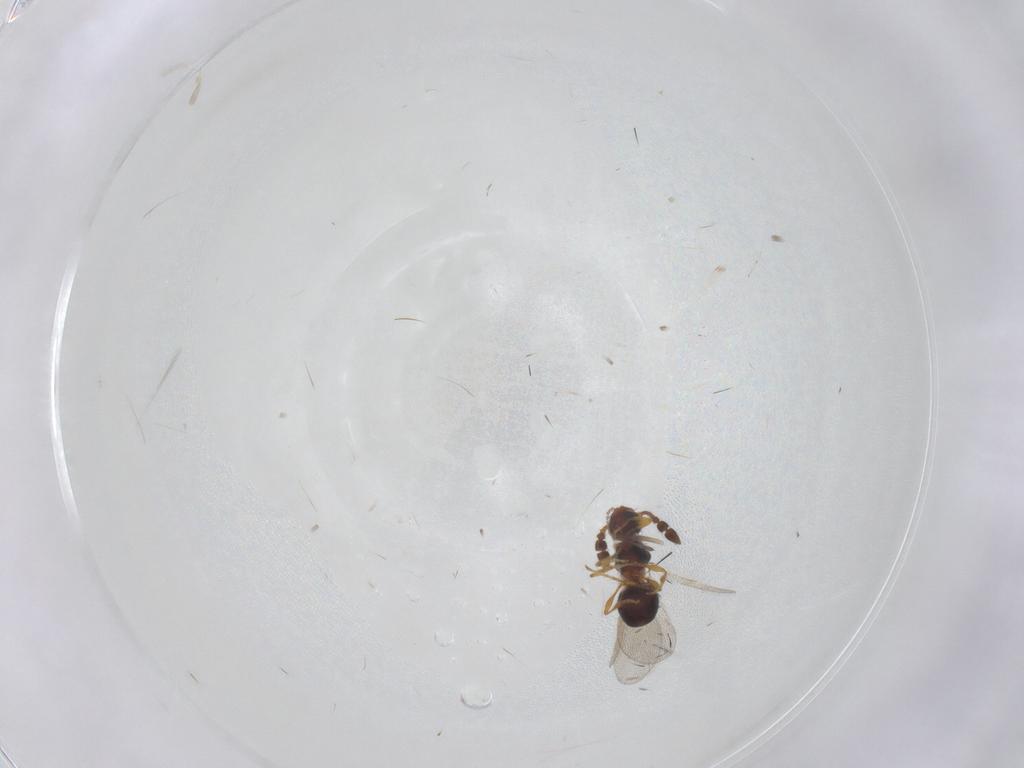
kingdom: Animalia
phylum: Arthropoda
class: Insecta
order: Hymenoptera
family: Diapriidae
